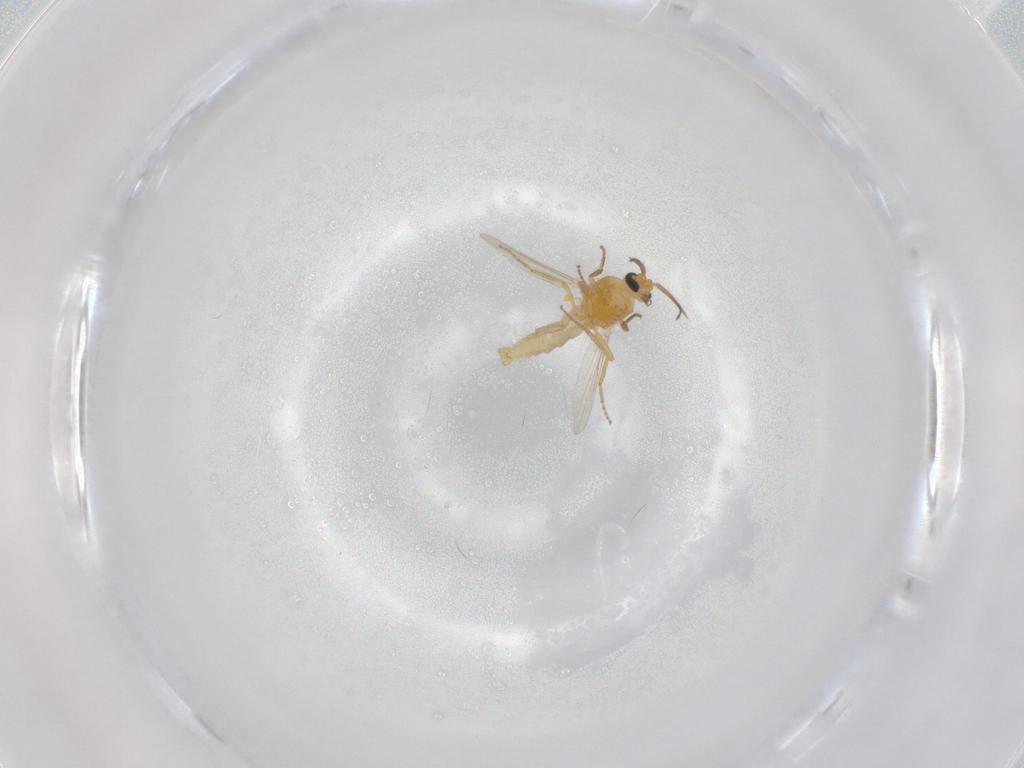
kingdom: Animalia
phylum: Arthropoda
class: Insecta
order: Diptera
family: Ceratopogonidae
